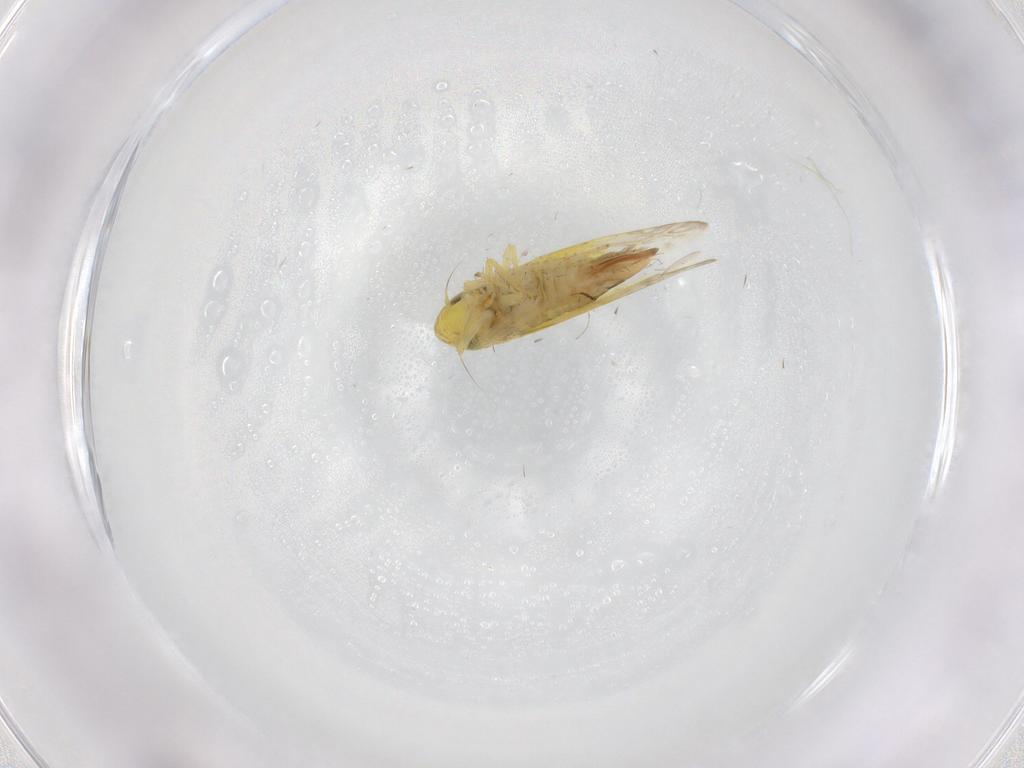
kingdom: Animalia
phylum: Arthropoda
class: Insecta
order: Hemiptera
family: Cicadellidae
